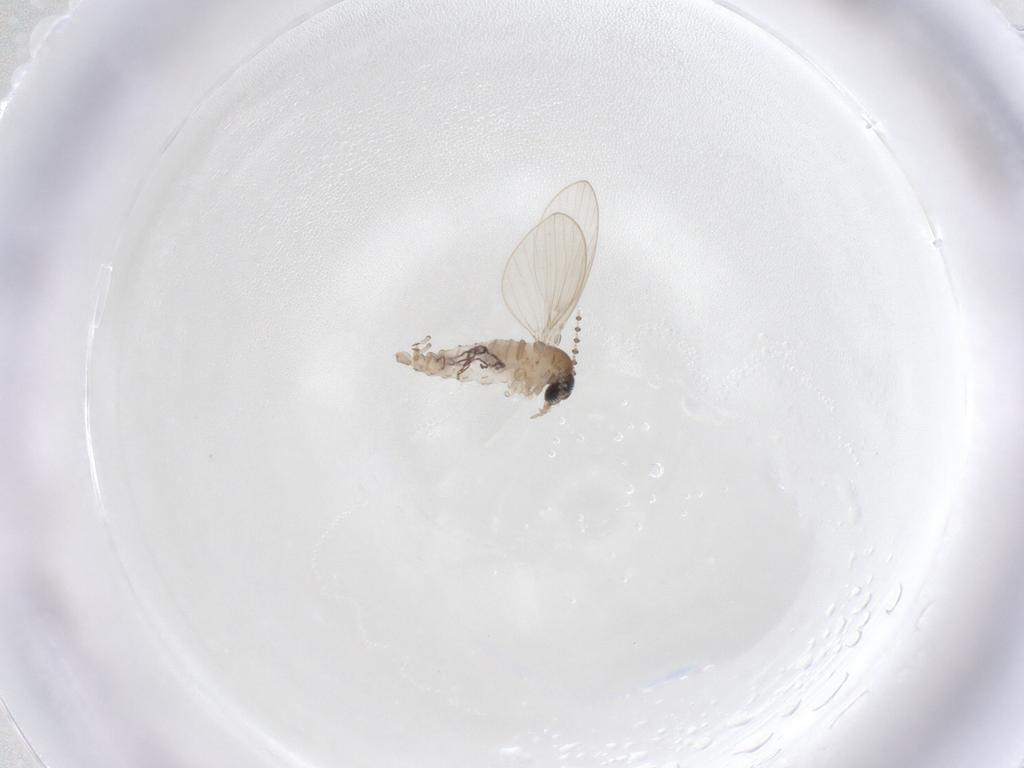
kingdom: Animalia
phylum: Arthropoda
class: Insecta
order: Diptera
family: Psychodidae
